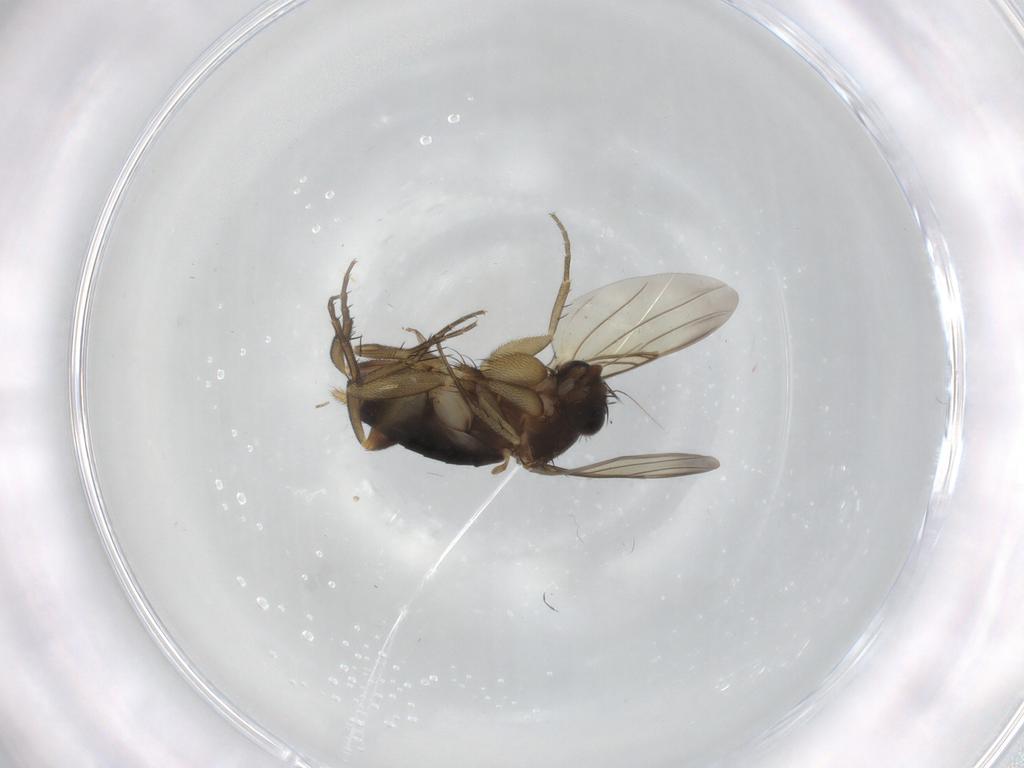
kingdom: Animalia
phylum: Arthropoda
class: Insecta
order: Diptera
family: Phoridae
